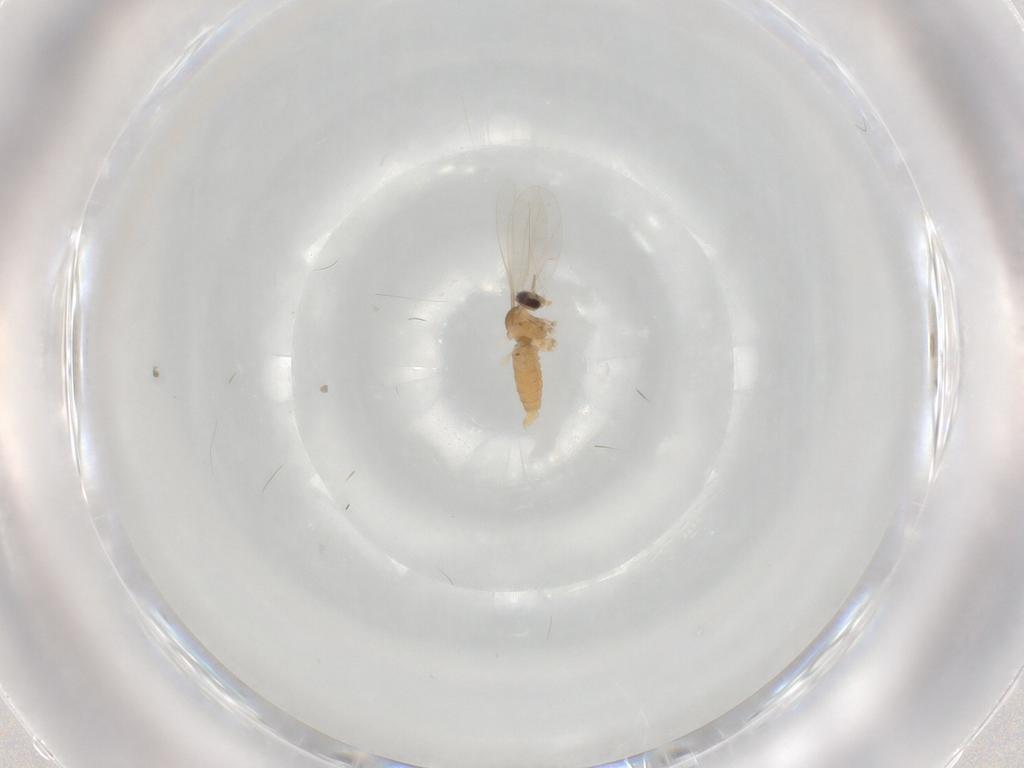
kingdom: Animalia
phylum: Arthropoda
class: Insecta
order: Diptera
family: Cecidomyiidae
